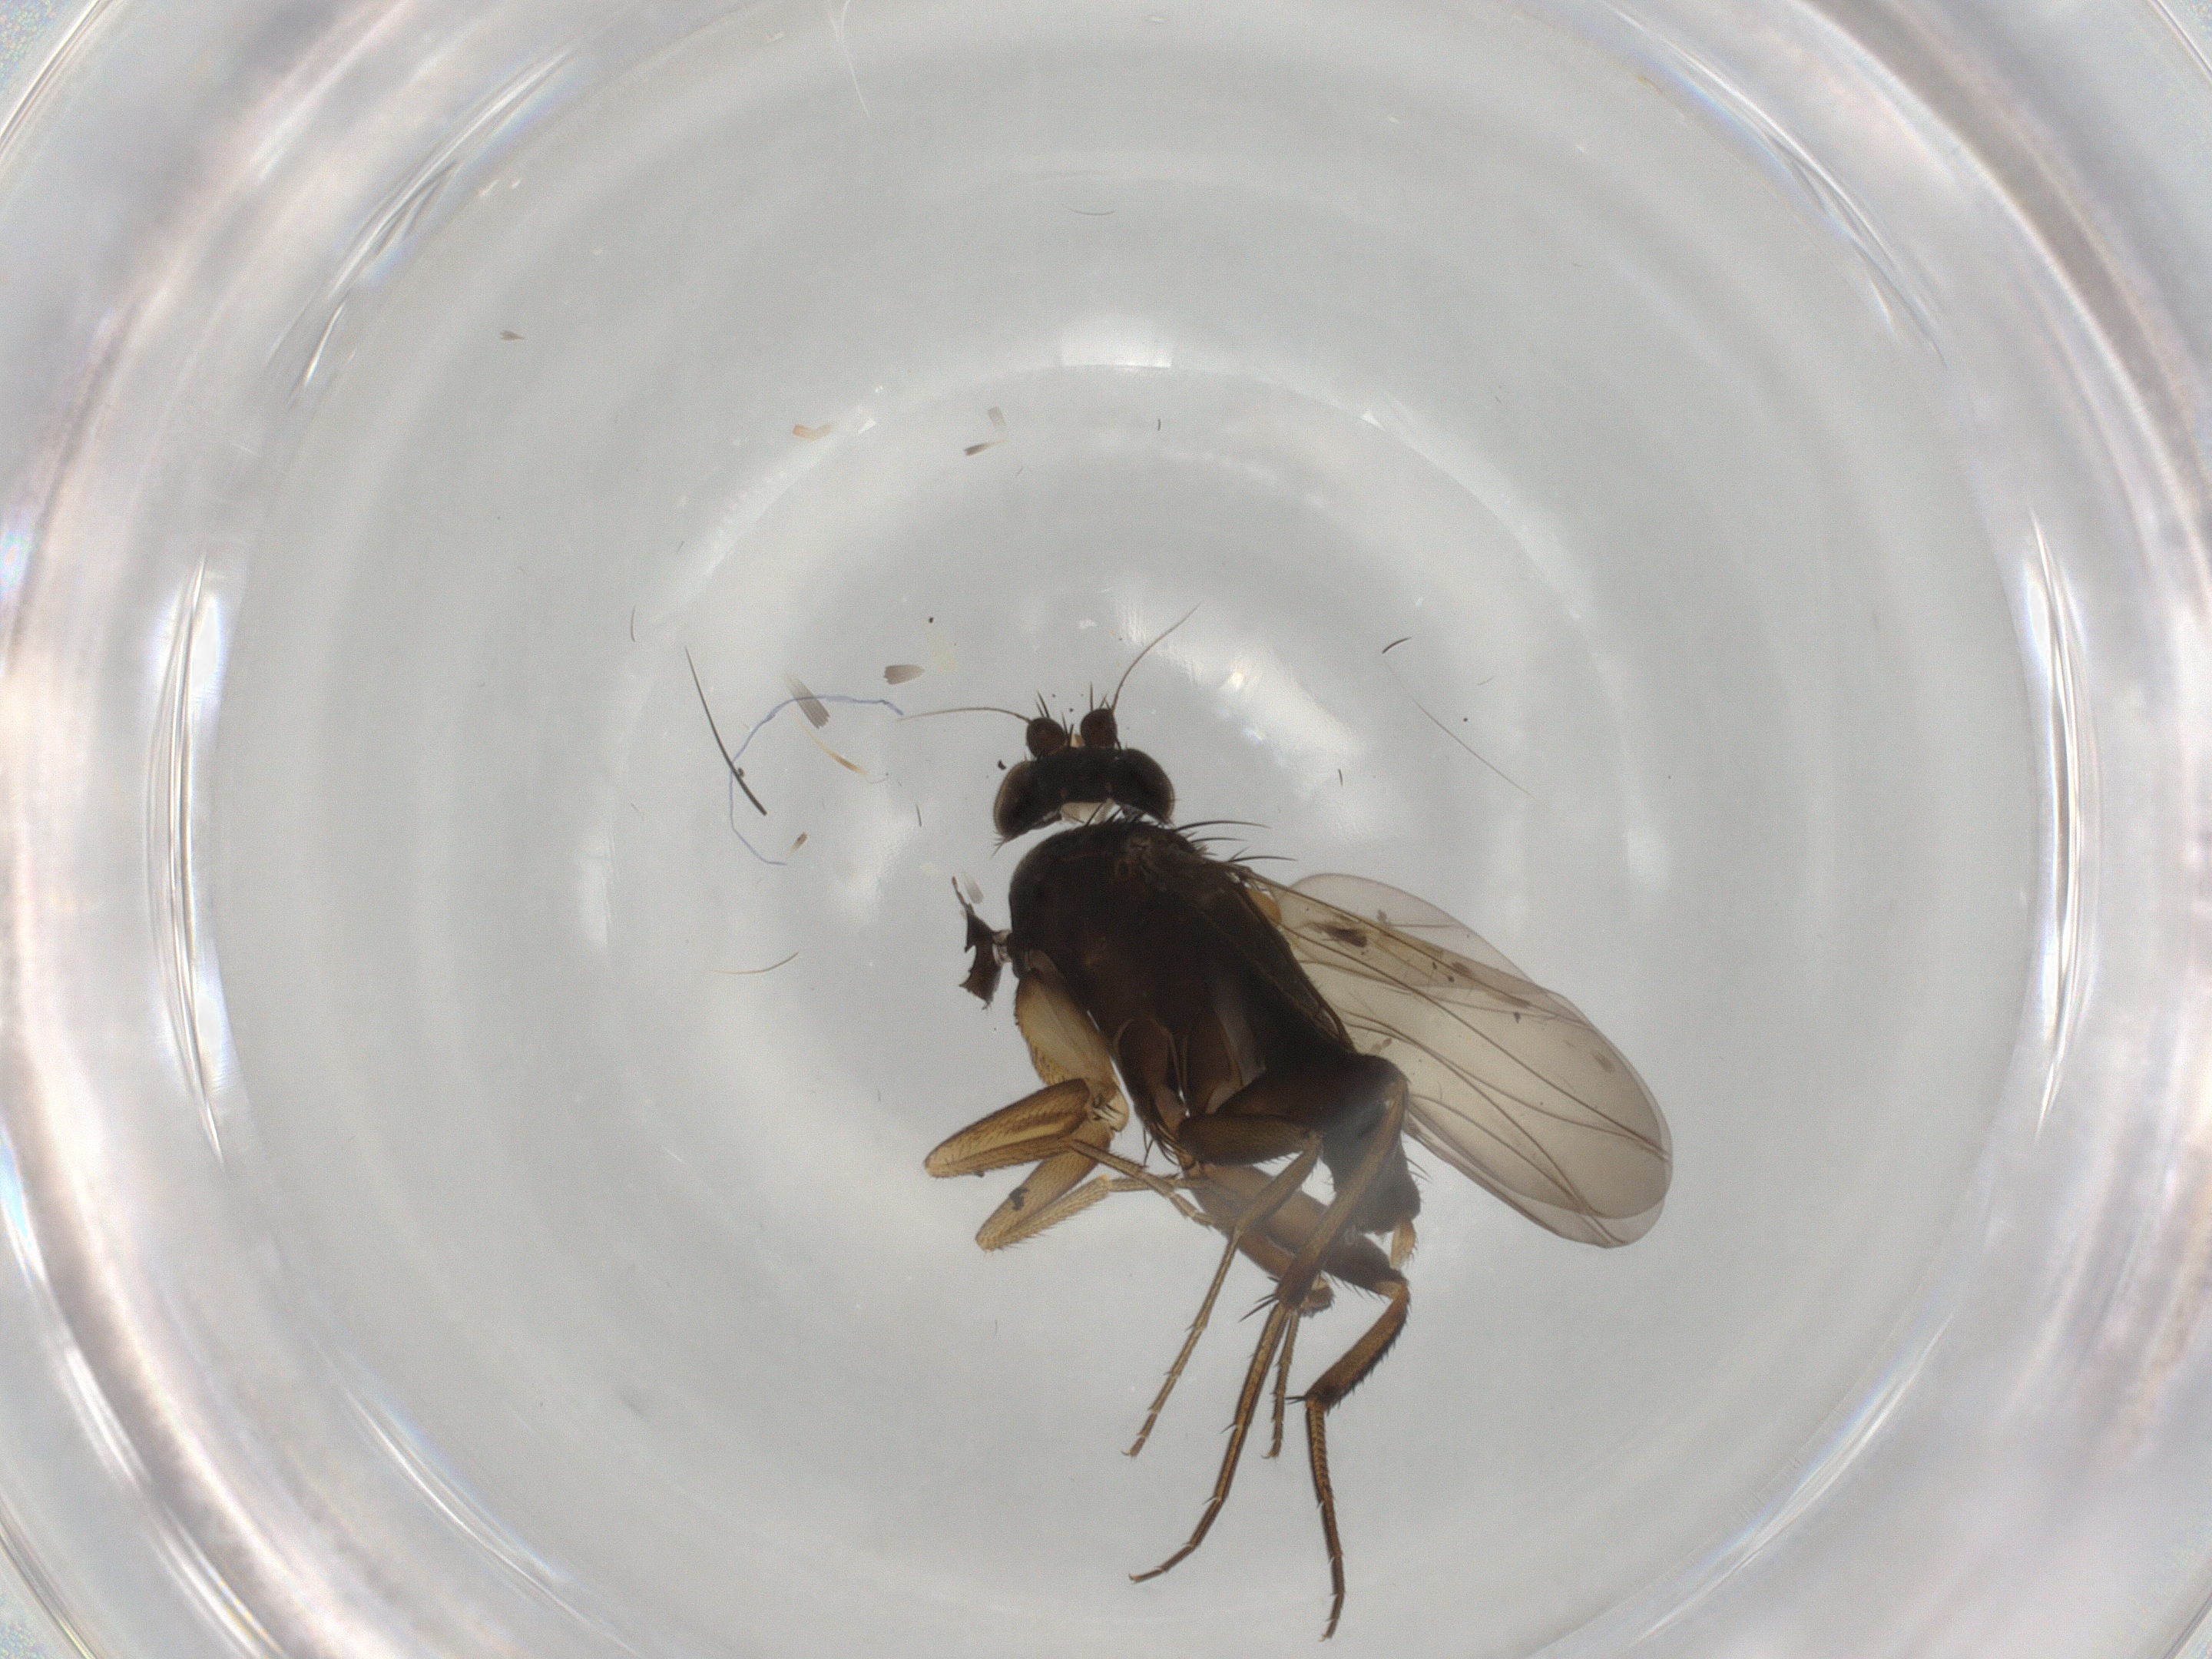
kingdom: Animalia
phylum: Arthropoda
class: Insecta
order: Diptera
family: Phoridae
